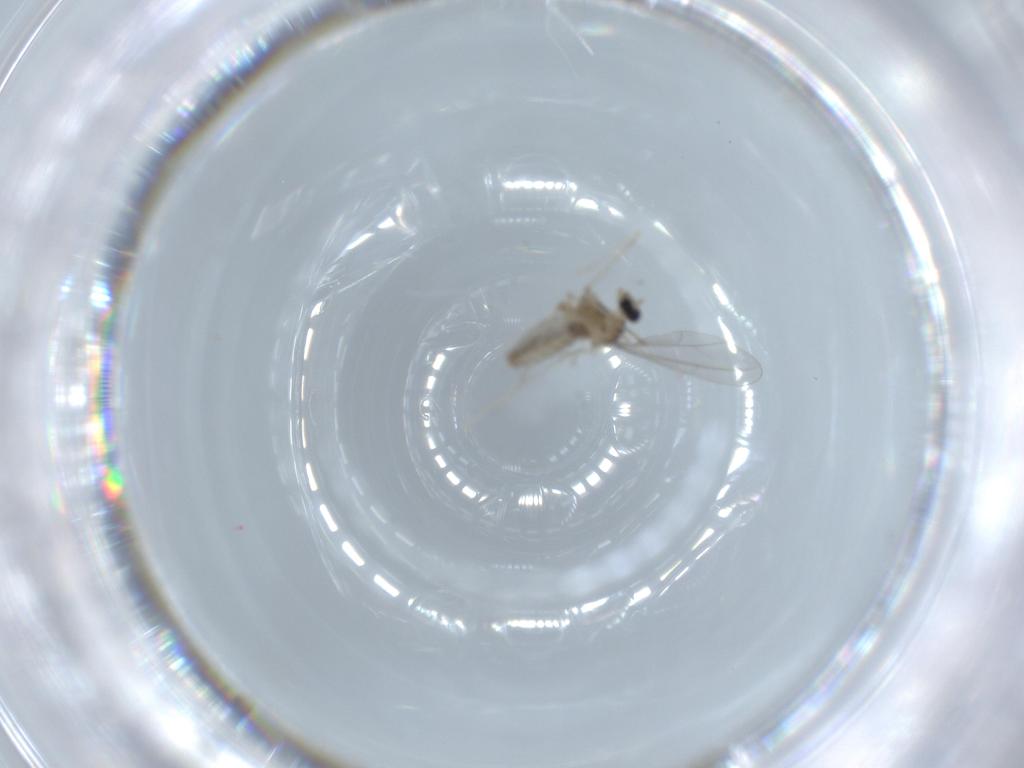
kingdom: Animalia
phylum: Arthropoda
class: Insecta
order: Diptera
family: Cecidomyiidae
